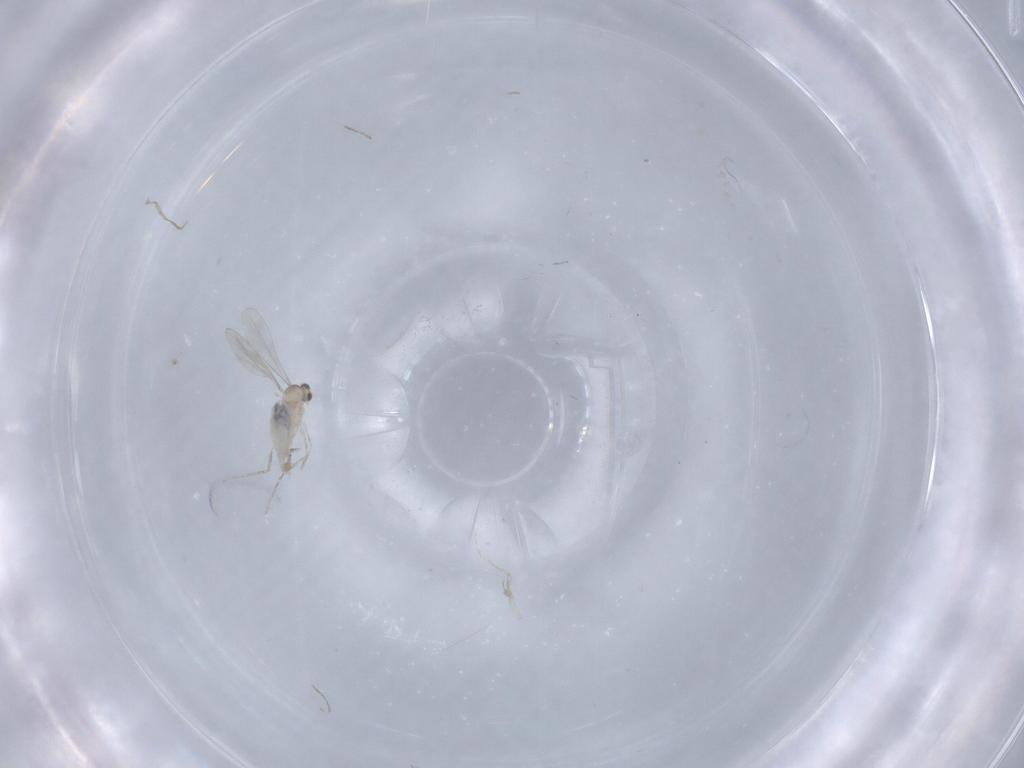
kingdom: Animalia
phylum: Arthropoda
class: Insecta
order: Diptera
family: Cecidomyiidae
